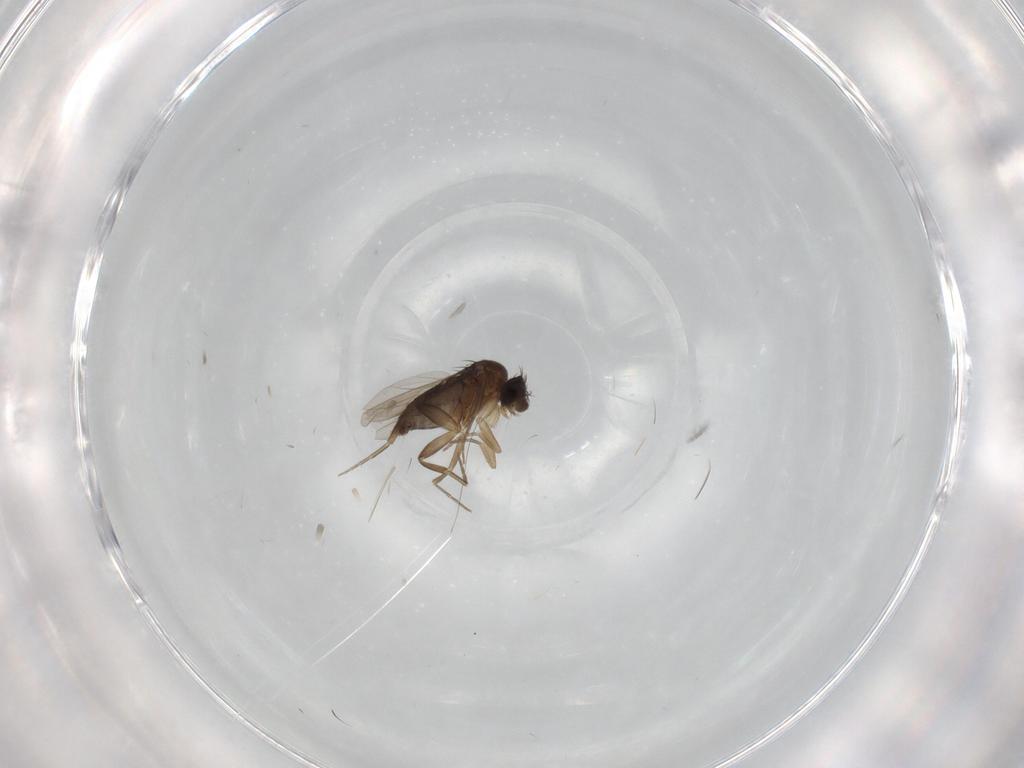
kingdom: Animalia
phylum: Arthropoda
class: Insecta
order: Diptera
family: Phoridae
